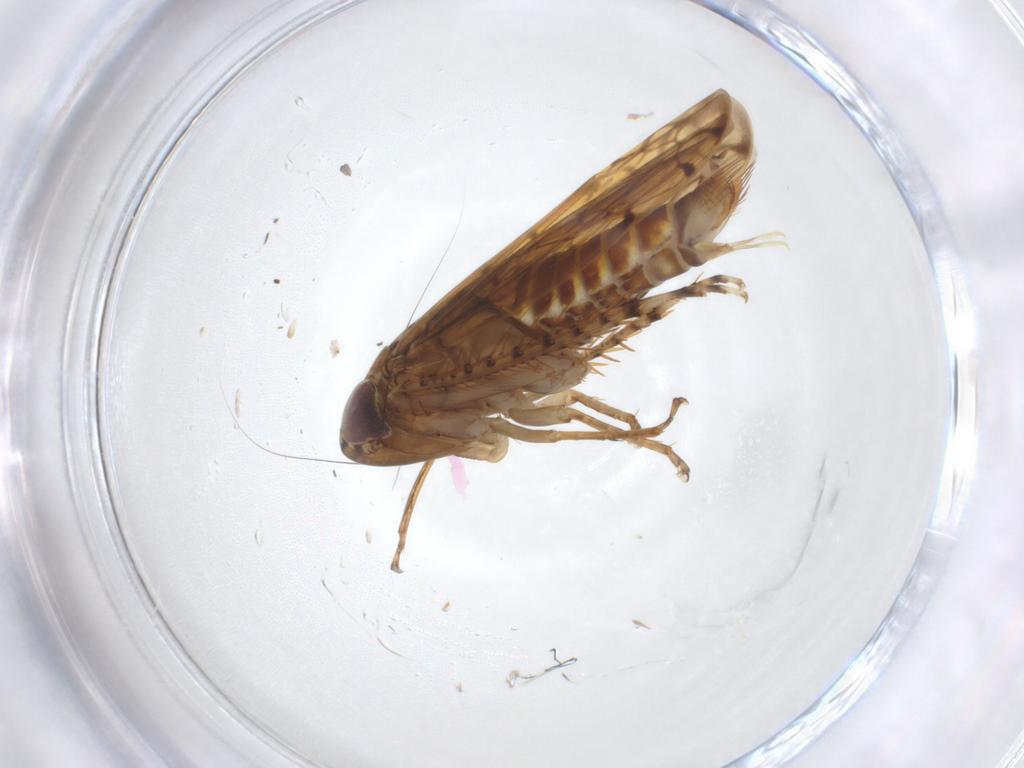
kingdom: Animalia
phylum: Arthropoda
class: Insecta
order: Hemiptera
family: Cicadellidae
